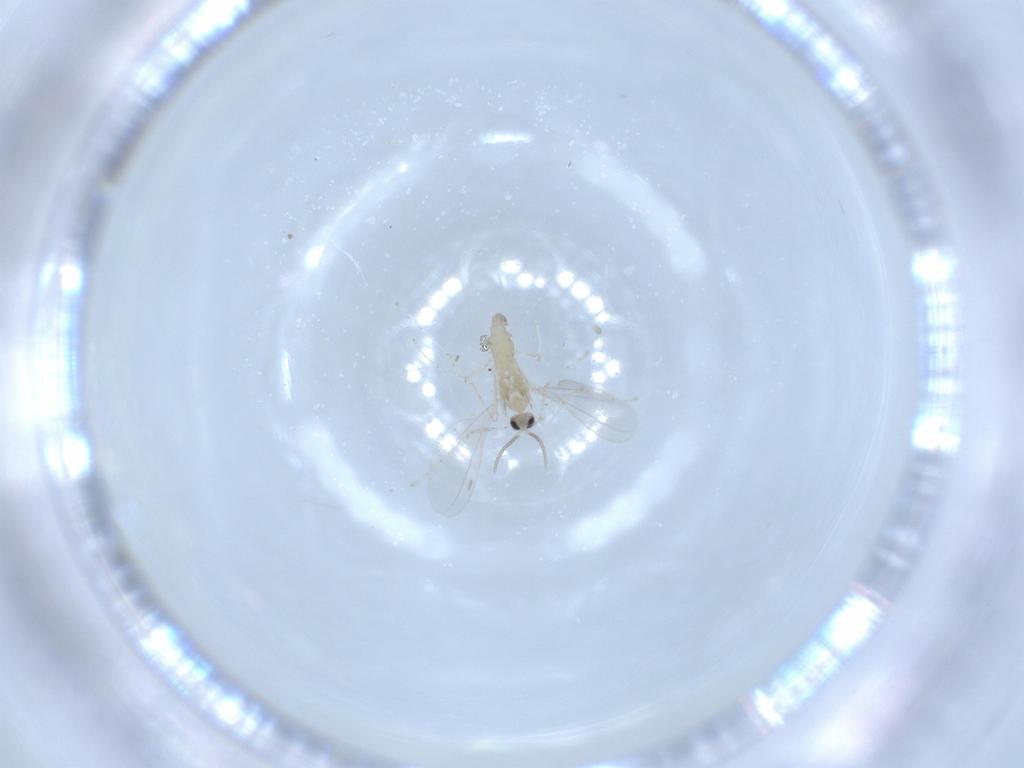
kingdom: Animalia
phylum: Arthropoda
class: Insecta
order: Diptera
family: Cecidomyiidae
